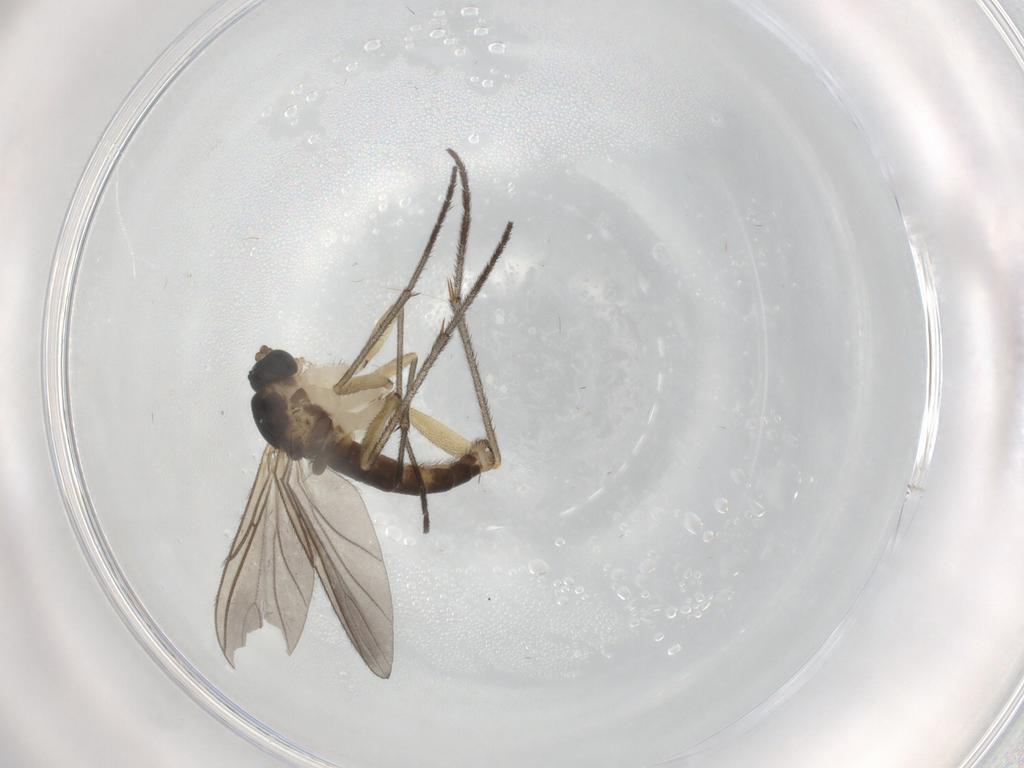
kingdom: Animalia
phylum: Arthropoda
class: Insecta
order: Diptera
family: Sciaridae
